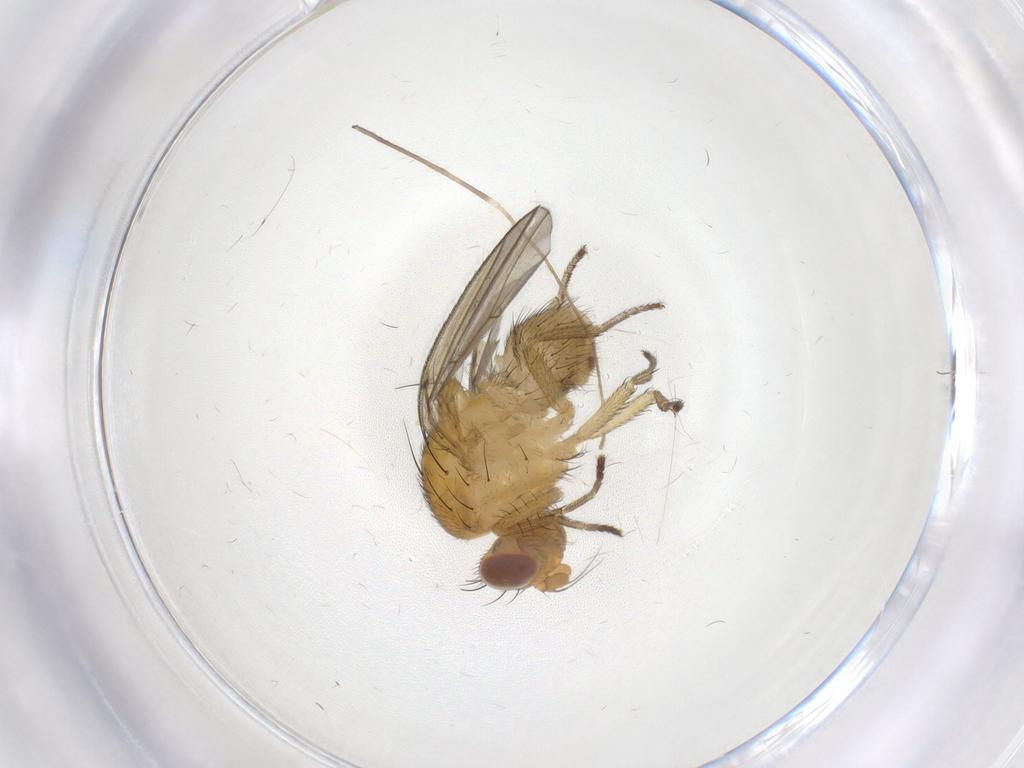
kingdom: Animalia
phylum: Arthropoda
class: Insecta
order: Diptera
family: Limoniidae
